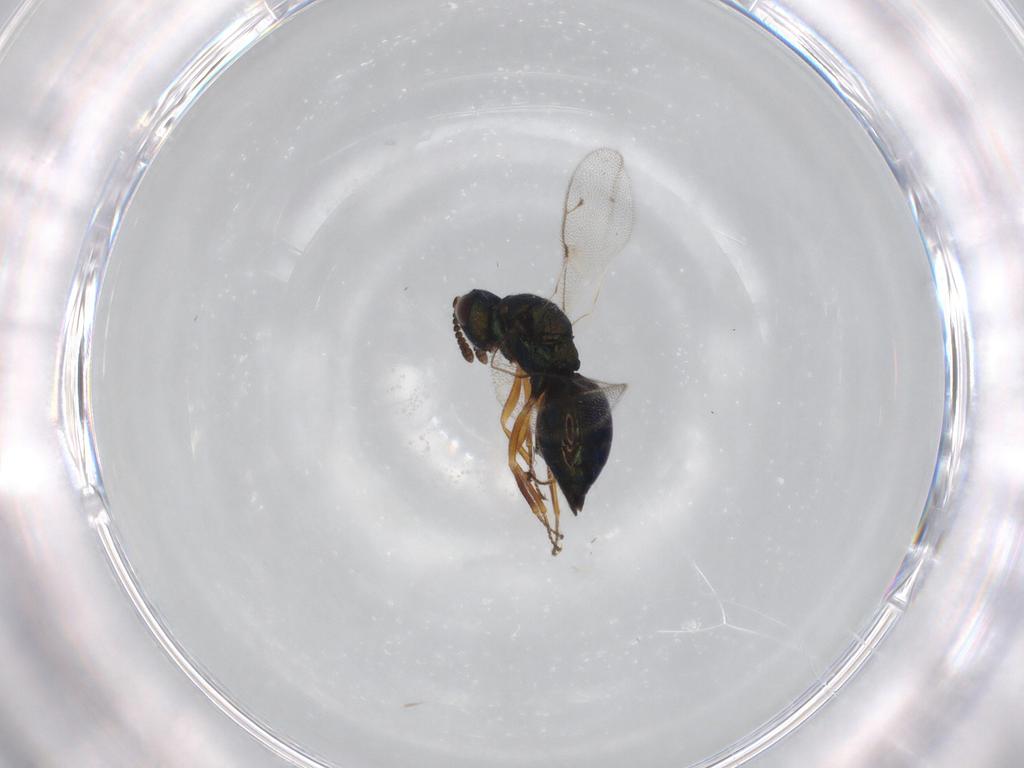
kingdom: Animalia
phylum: Arthropoda
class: Insecta
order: Hymenoptera
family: Pteromalidae
